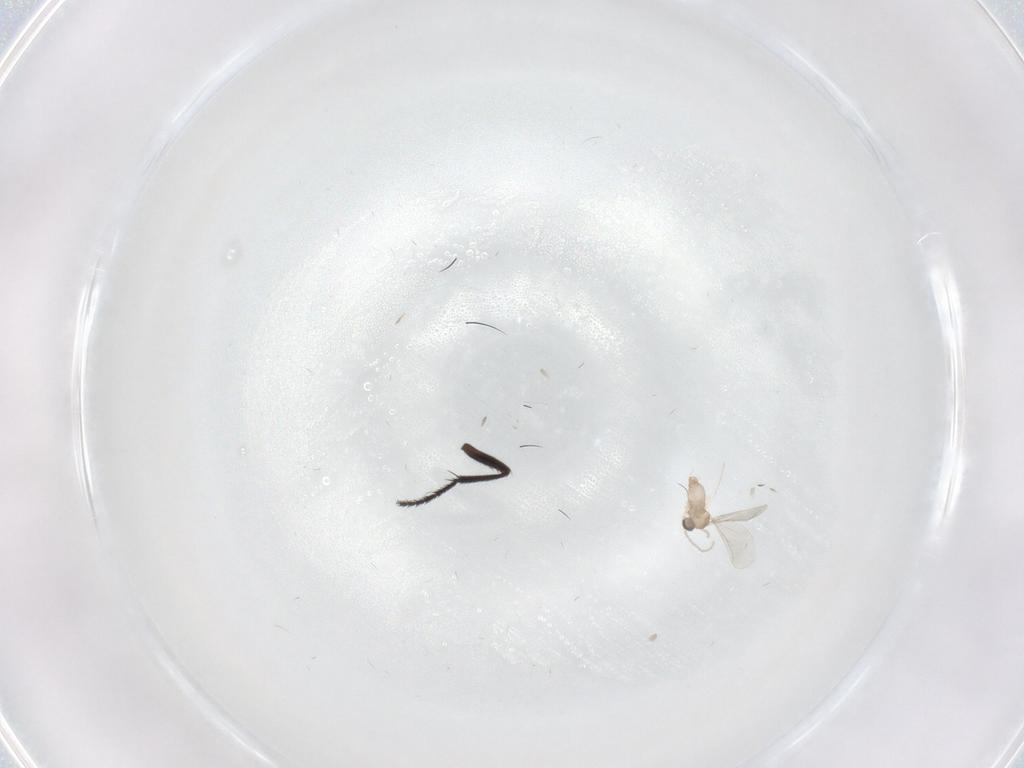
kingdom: Animalia
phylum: Arthropoda
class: Insecta
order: Diptera
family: Milichiidae
